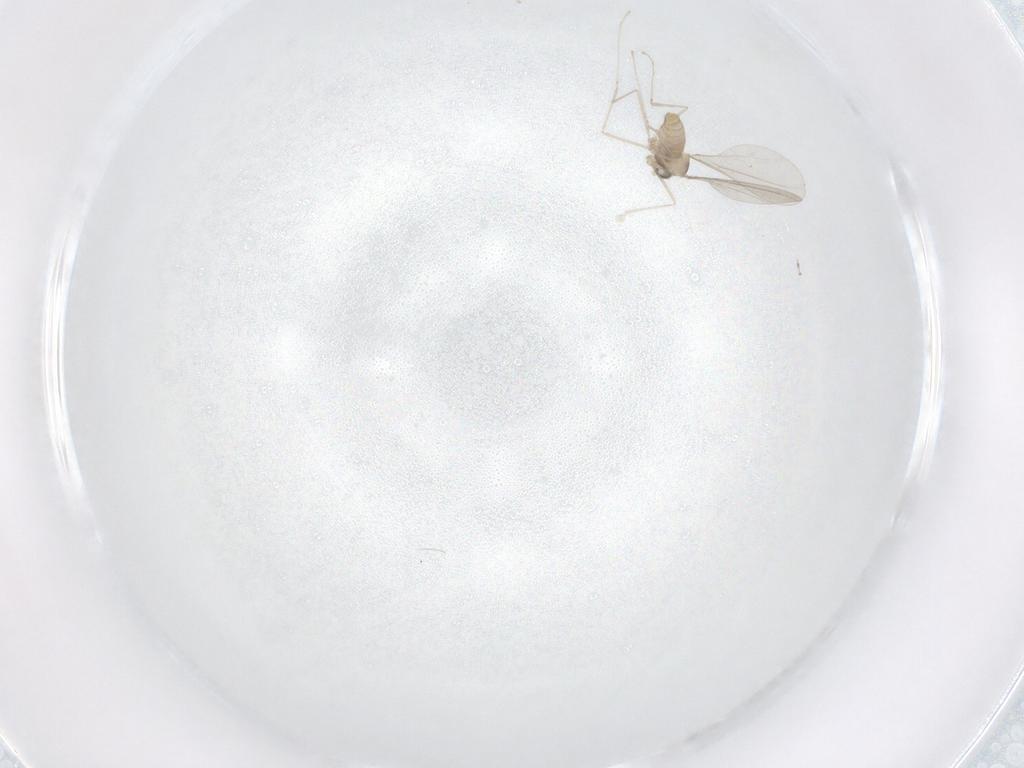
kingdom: Animalia
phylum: Arthropoda
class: Insecta
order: Diptera
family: Cecidomyiidae
